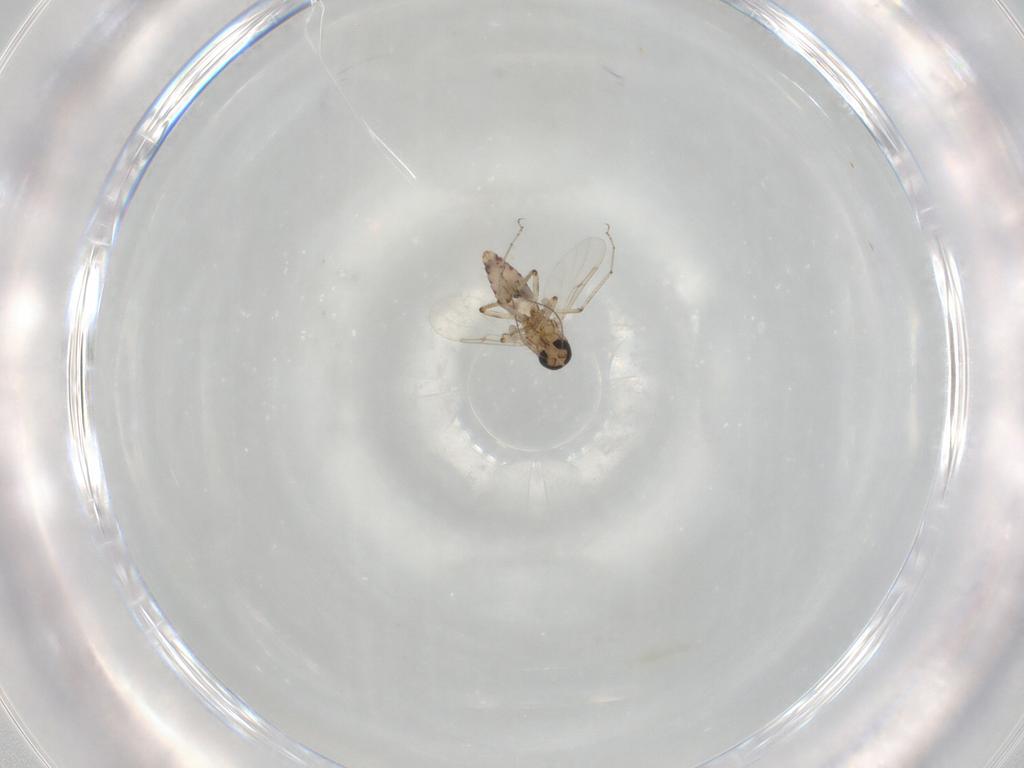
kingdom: Animalia
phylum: Arthropoda
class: Insecta
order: Diptera
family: Ceratopogonidae
